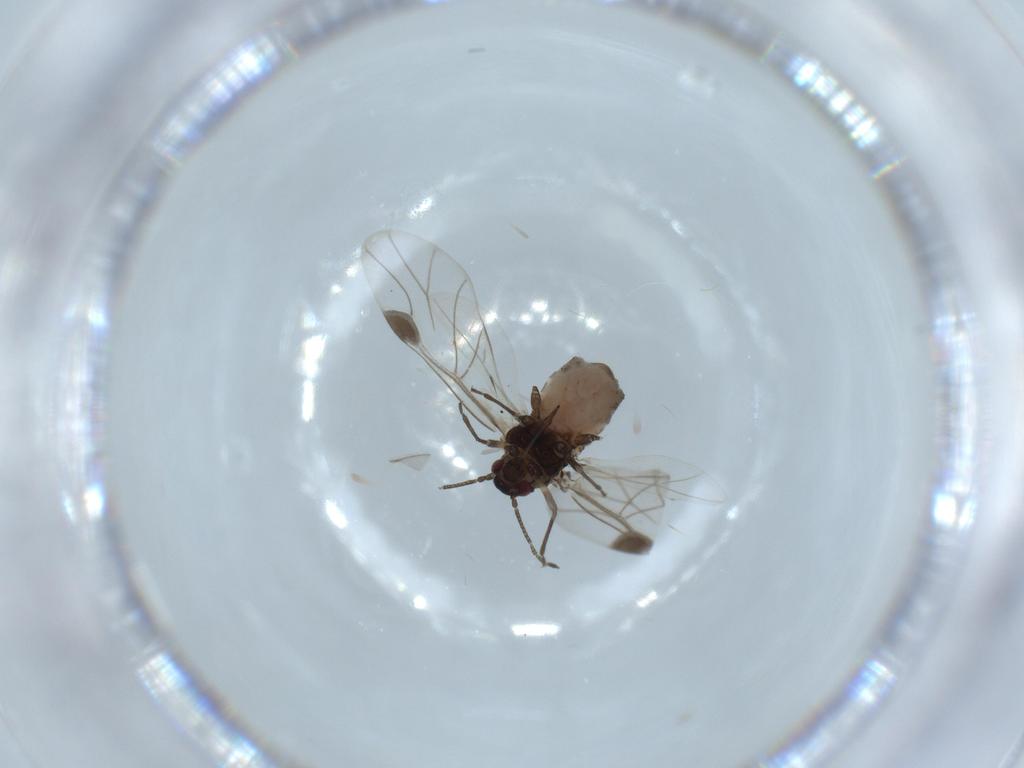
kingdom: Animalia
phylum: Arthropoda
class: Insecta
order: Hemiptera
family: Aphididae
